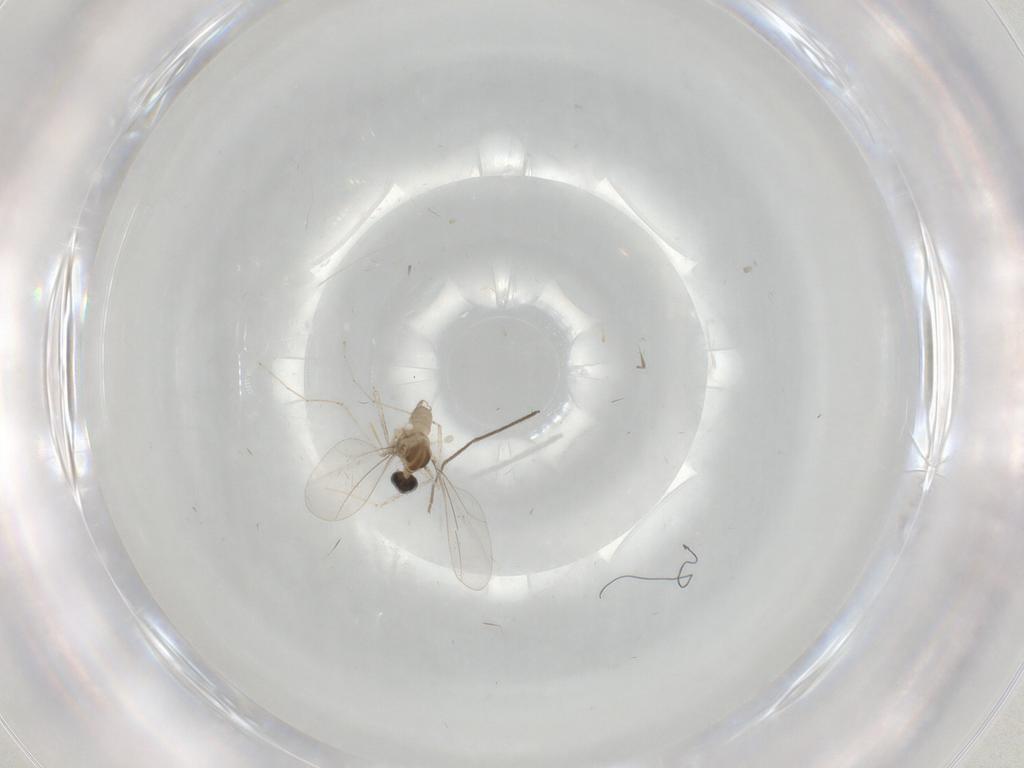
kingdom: Animalia
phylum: Arthropoda
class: Insecta
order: Diptera
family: Cecidomyiidae
